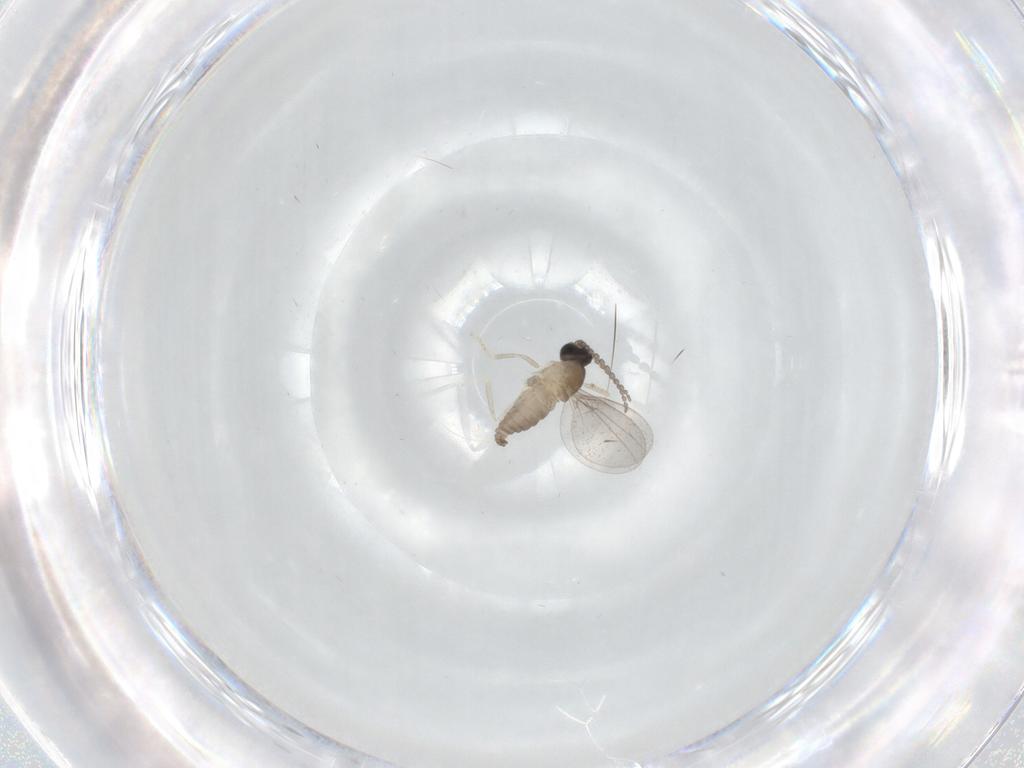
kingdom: Animalia
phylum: Arthropoda
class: Insecta
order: Diptera
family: Cecidomyiidae
